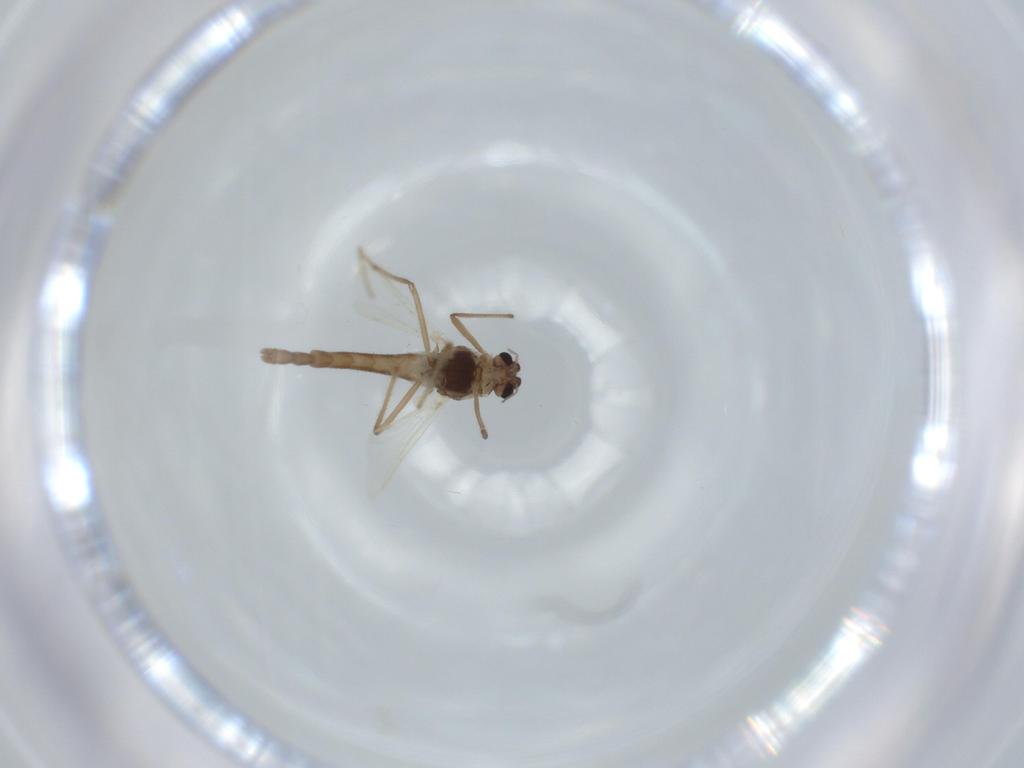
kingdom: Animalia
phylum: Arthropoda
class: Insecta
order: Diptera
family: Chironomidae
